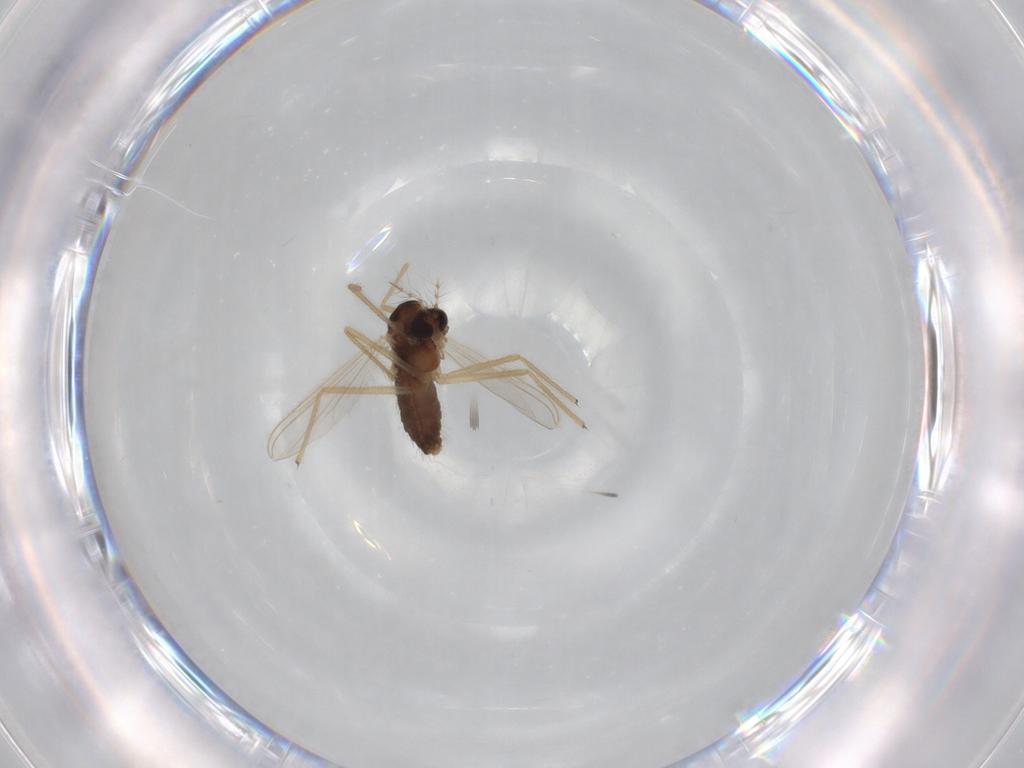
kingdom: Animalia
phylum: Arthropoda
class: Insecta
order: Diptera
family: Chironomidae
